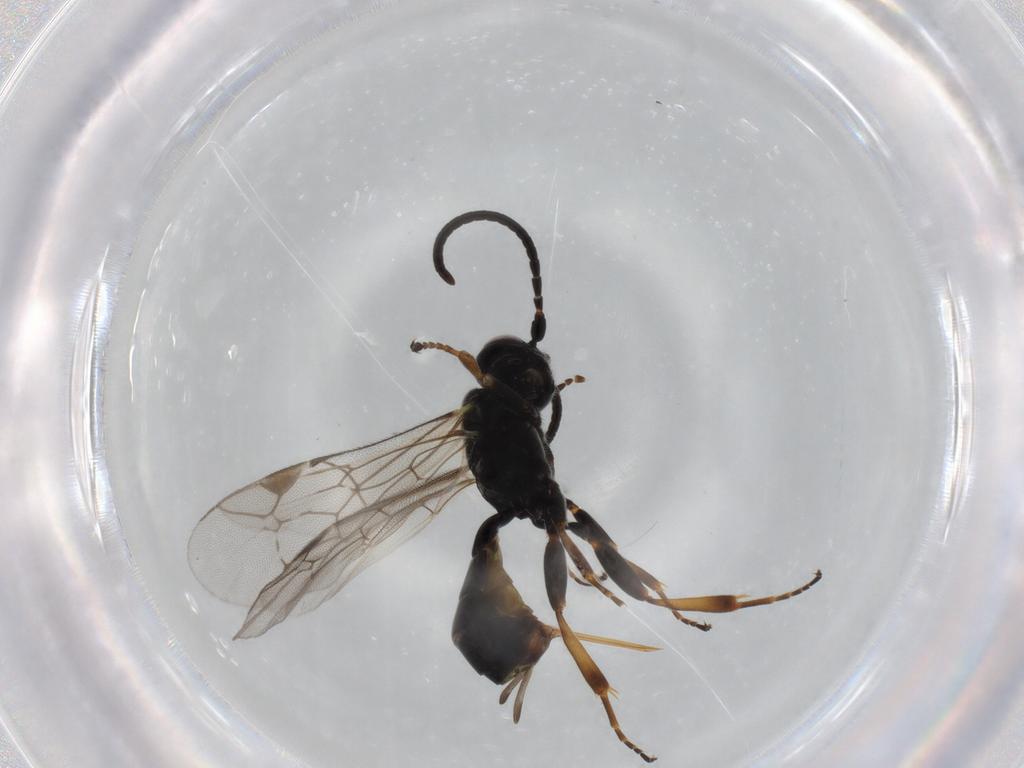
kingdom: Animalia
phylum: Arthropoda
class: Insecta
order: Hymenoptera
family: Ichneumonidae
